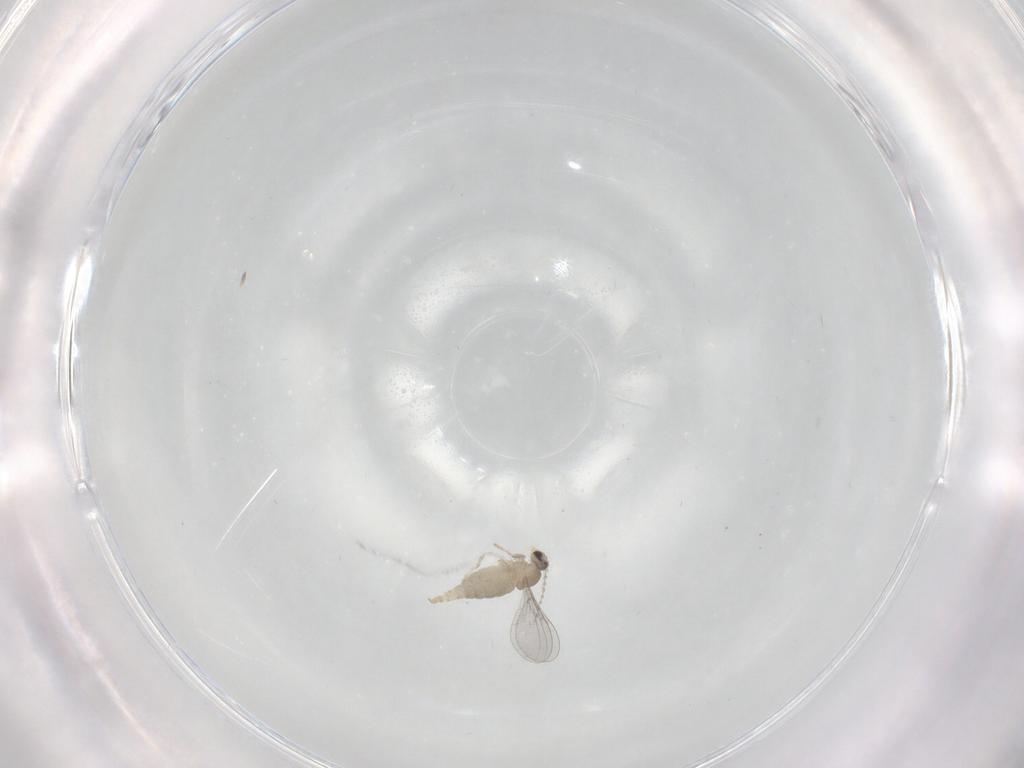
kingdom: Animalia
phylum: Arthropoda
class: Insecta
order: Diptera
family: Cecidomyiidae
